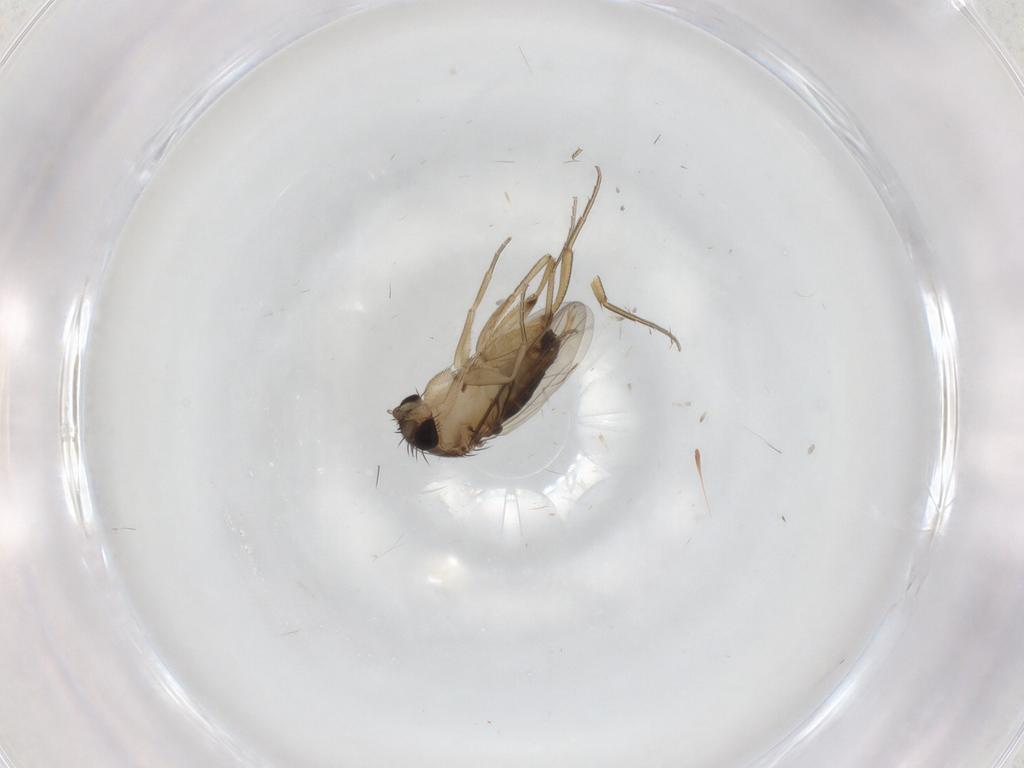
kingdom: Animalia
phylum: Arthropoda
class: Insecta
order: Diptera
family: Phoridae
